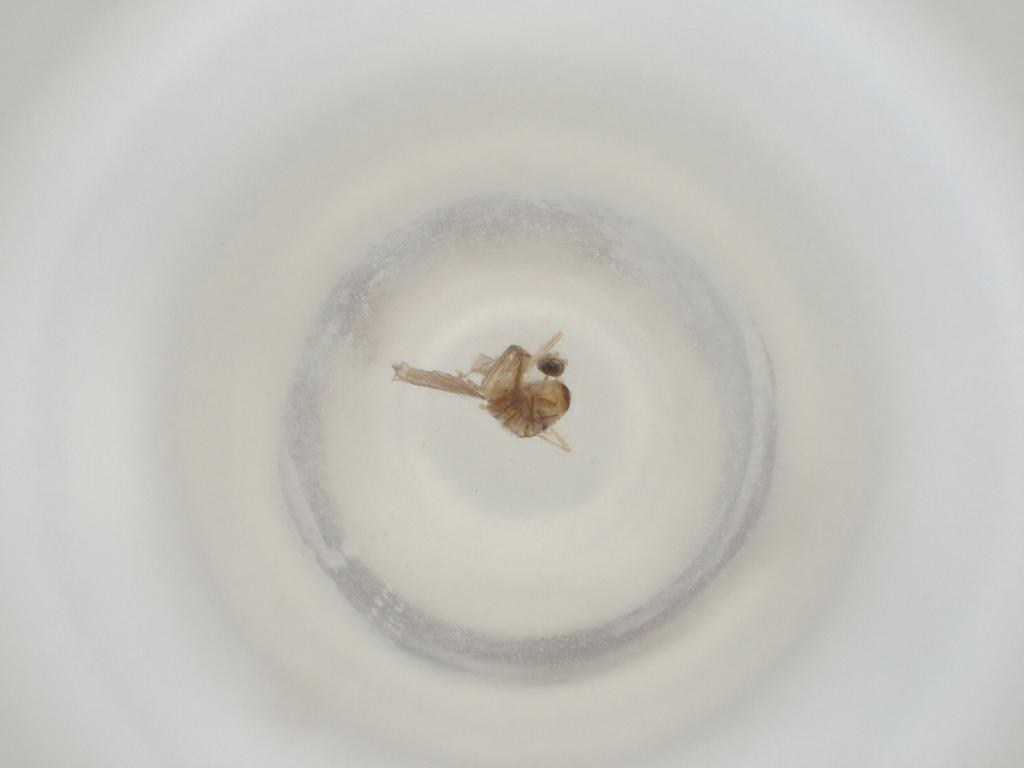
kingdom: Animalia
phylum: Arthropoda
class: Insecta
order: Diptera
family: Cecidomyiidae
